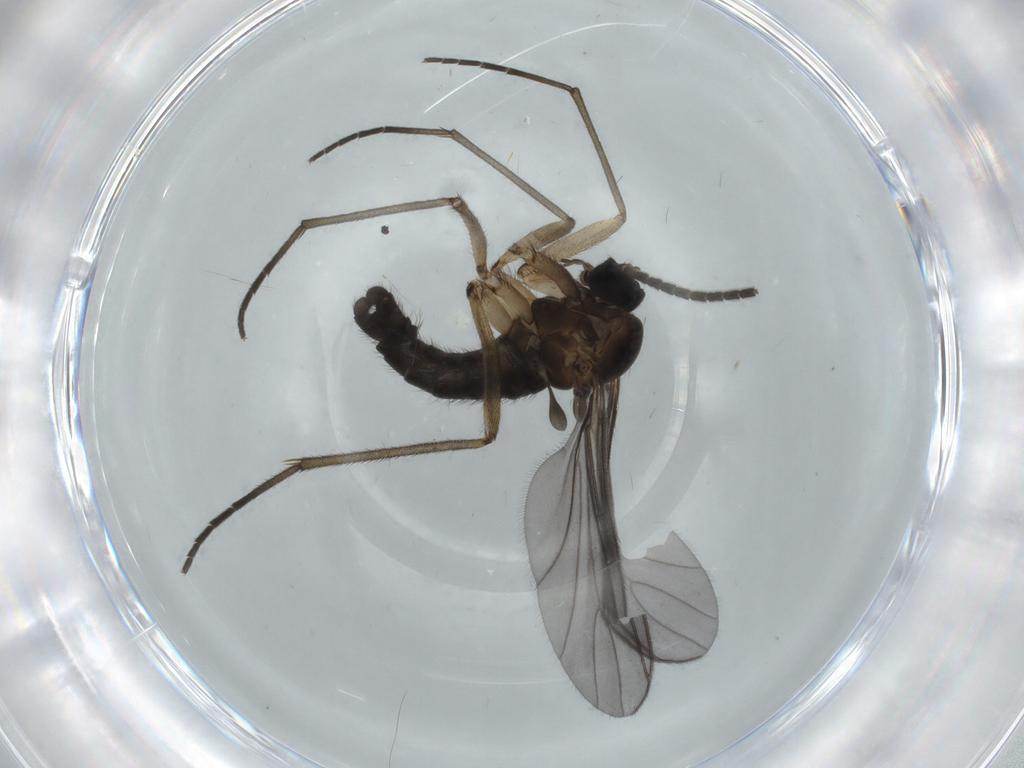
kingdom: Animalia
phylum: Arthropoda
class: Insecta
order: Diptera
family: Sciaridae
